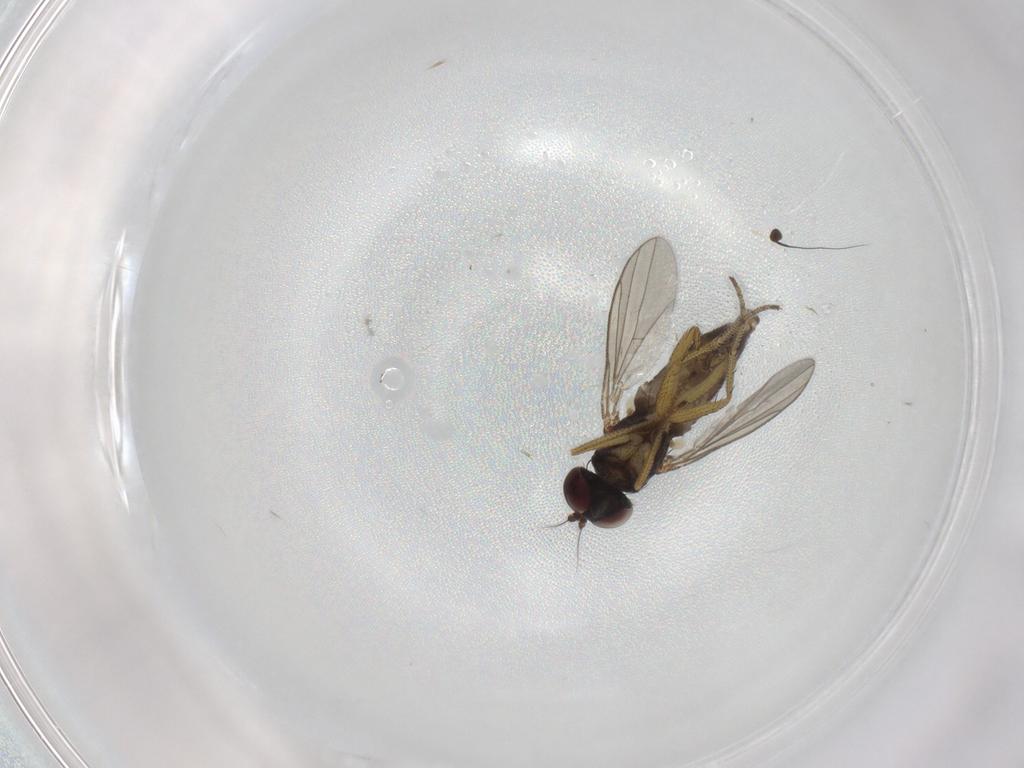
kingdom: Animalia
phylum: Arthropoda
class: Insecta
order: Diptera
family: Dolichopodidae
